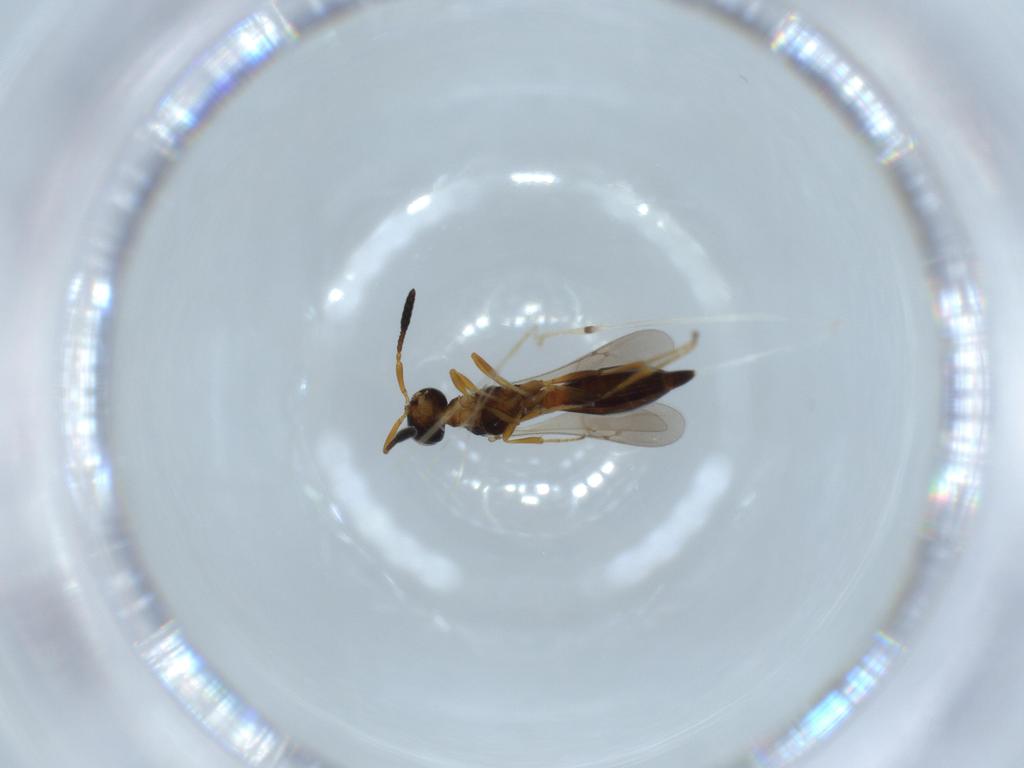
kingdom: Animalia
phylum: Arthropoda
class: Insecta
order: Hymenoptera
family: Scelionidae
